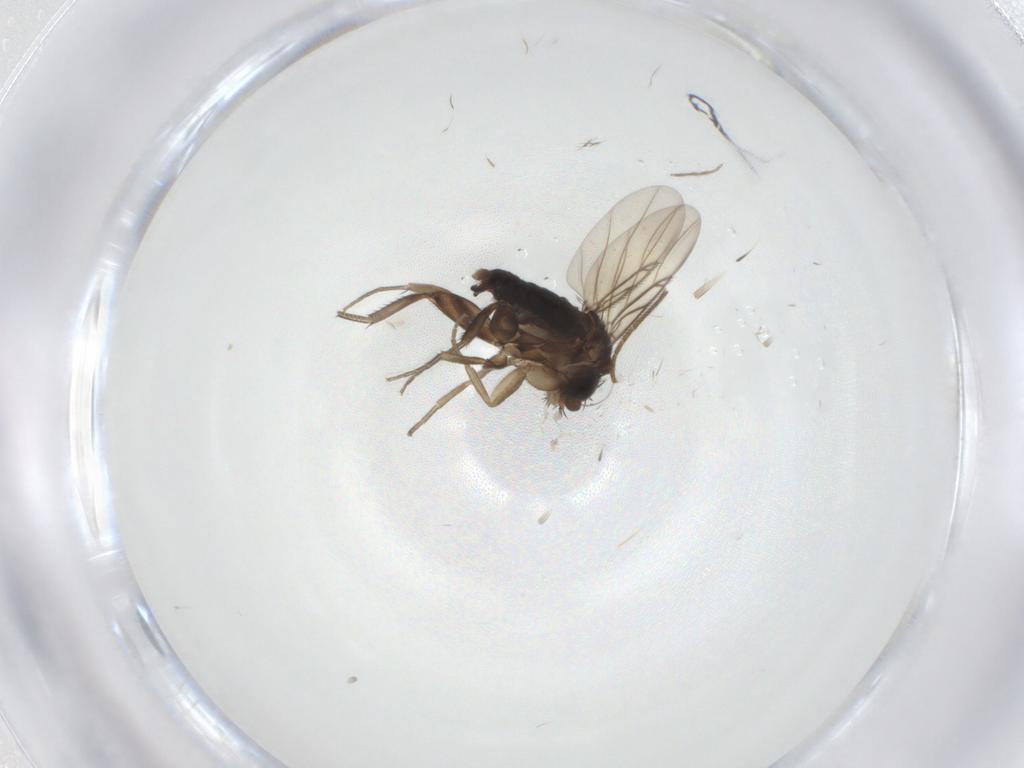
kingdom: Animalia
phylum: Arthropoda
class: Insecta
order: Diptera
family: Phoridae
